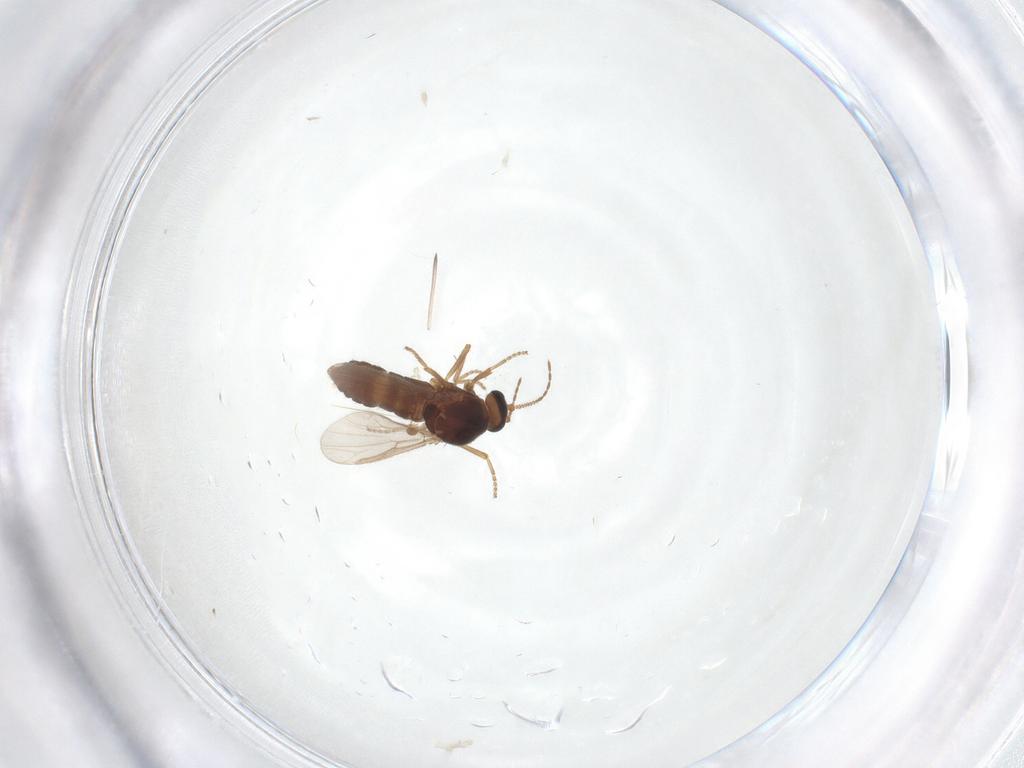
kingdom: Animalia
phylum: Arthropoda
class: Insecta
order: Diptera
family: Ceratopogonidae
